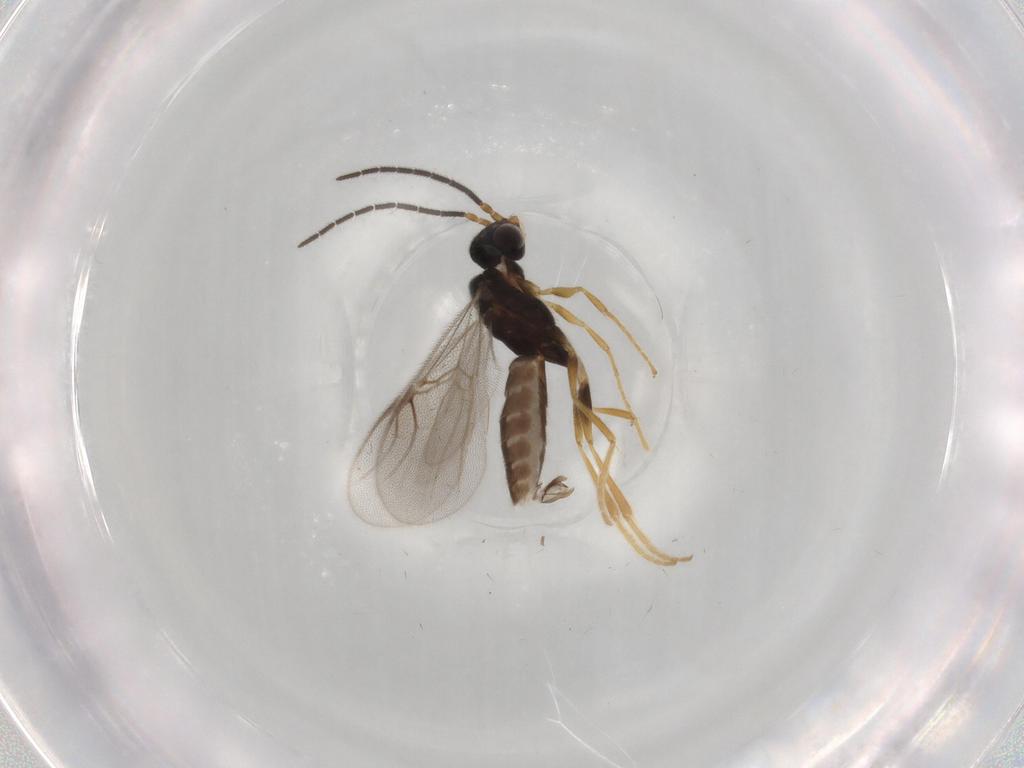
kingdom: Animalia
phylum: Arthropoda
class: Insecta
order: Hymenoptera
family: Dryinidae
